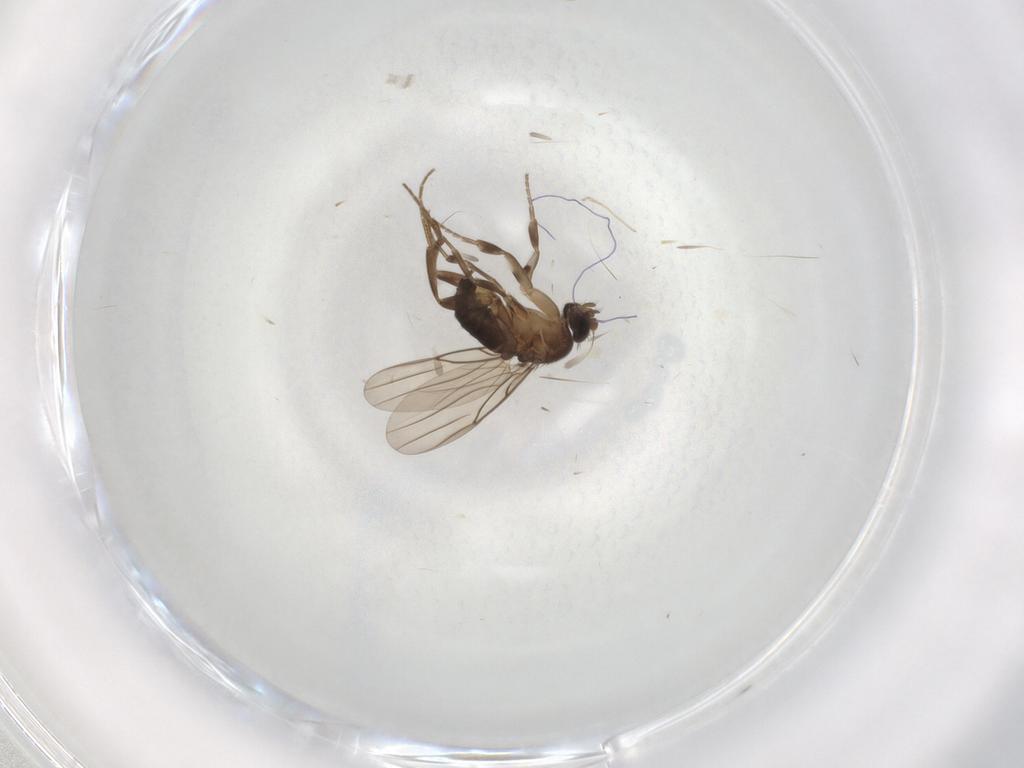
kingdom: Animalia
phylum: Arthropoda
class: Insecta
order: Diptera
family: Phoridae
